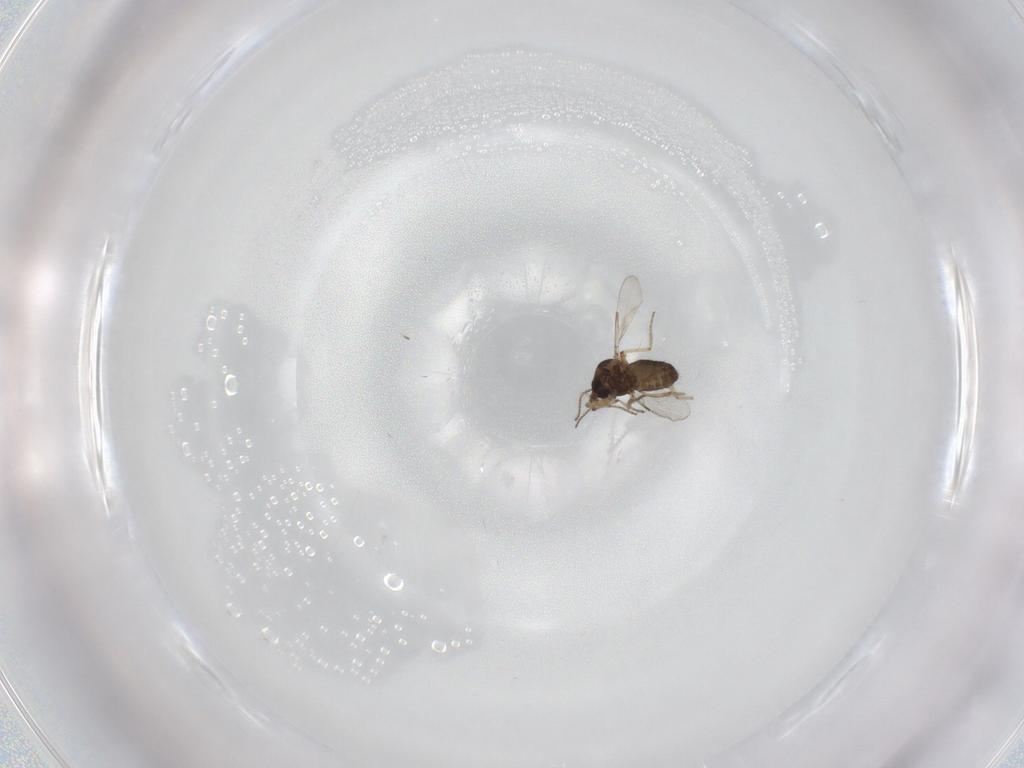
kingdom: Animalia
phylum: Arthropoda
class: Insecta
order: Diptera
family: Ceratopogonidae
